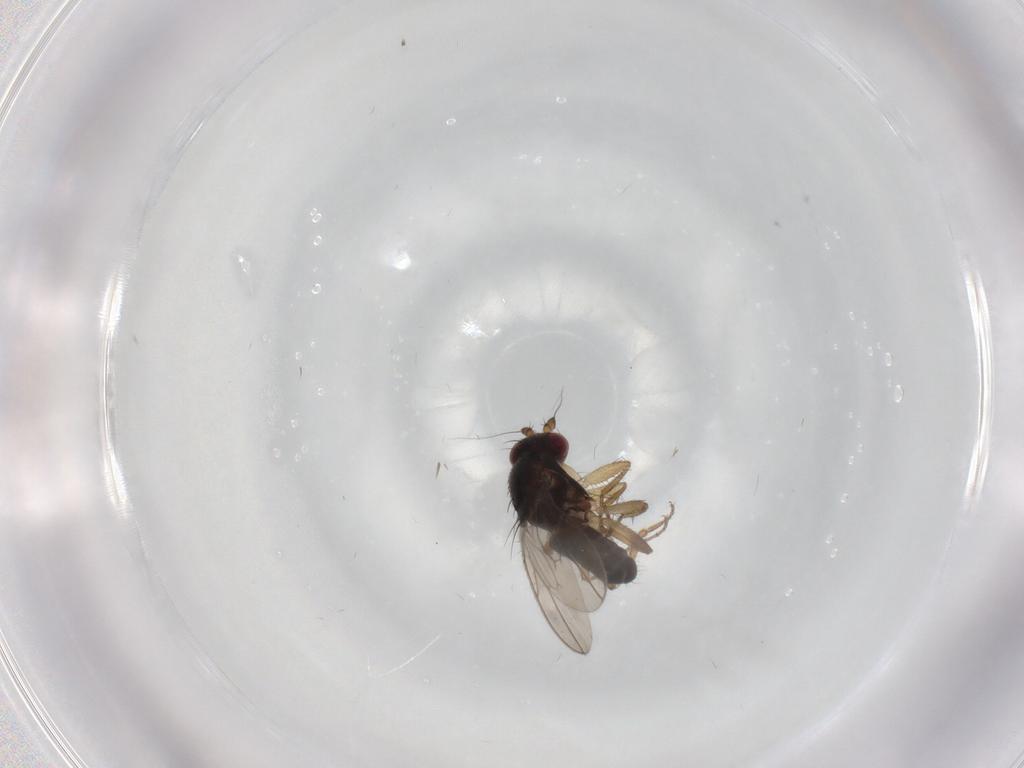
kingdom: Animalia
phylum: Arthropoda
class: Insecta
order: Diptera
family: Sphaeroceridae
